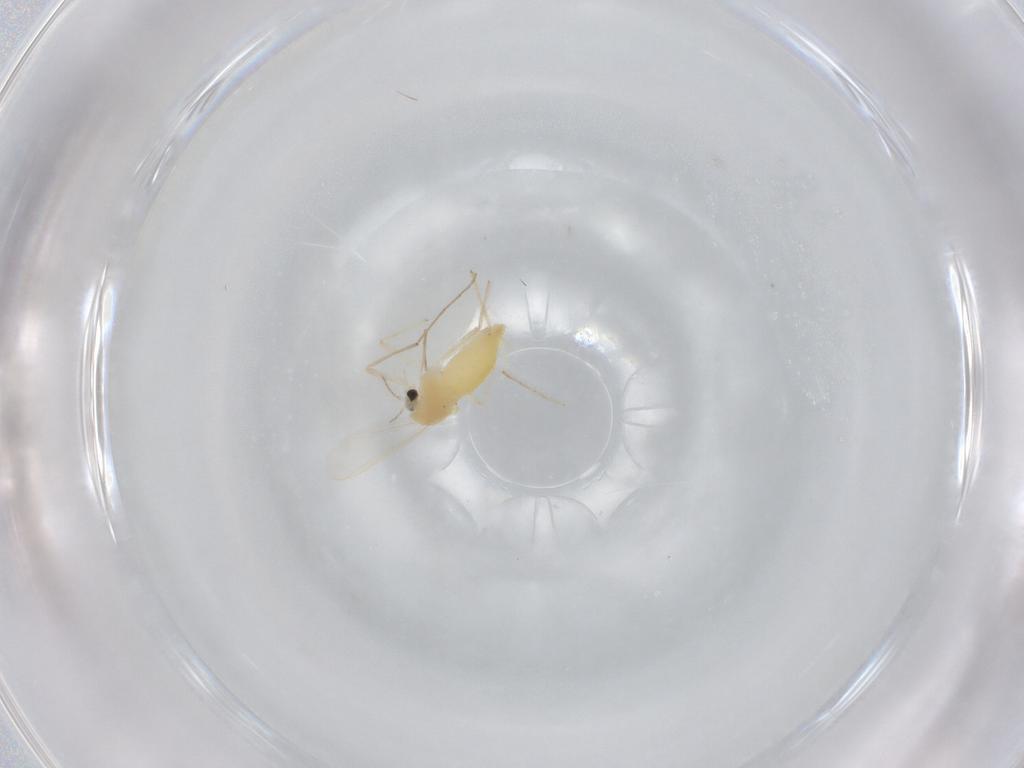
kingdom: Animalia
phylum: Arthropoda
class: Insecta
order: Diptera
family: Chironomidae
